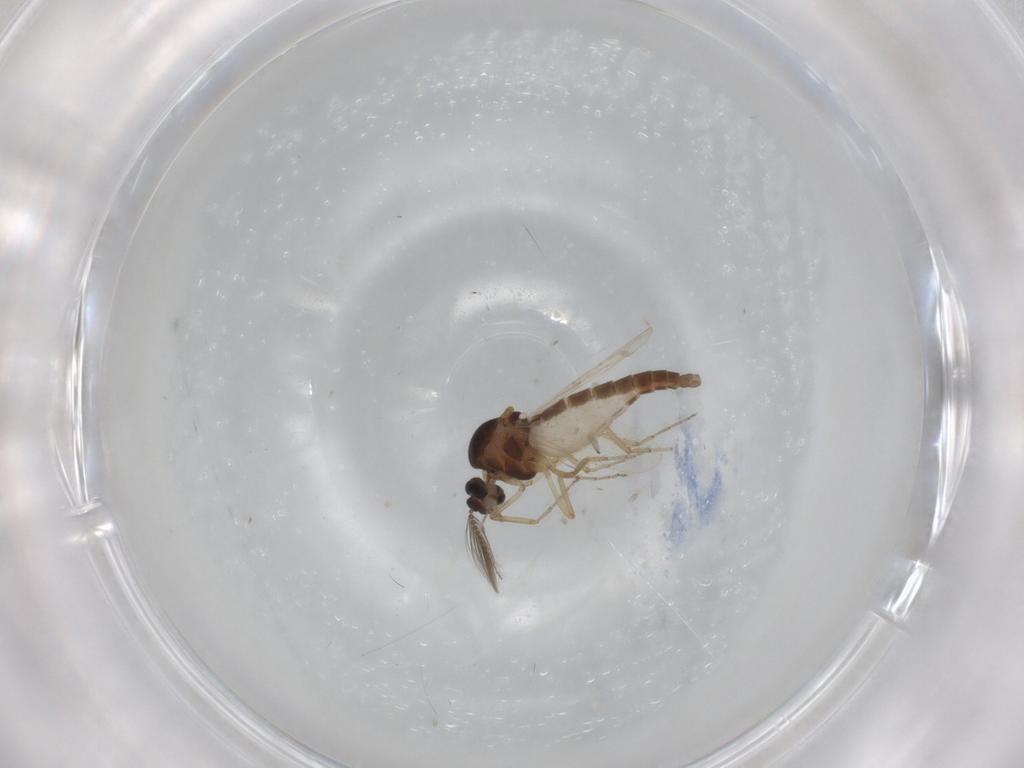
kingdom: Animalia
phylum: Arthropoda
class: Insecta
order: Diptera
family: Ceratopogonidae
